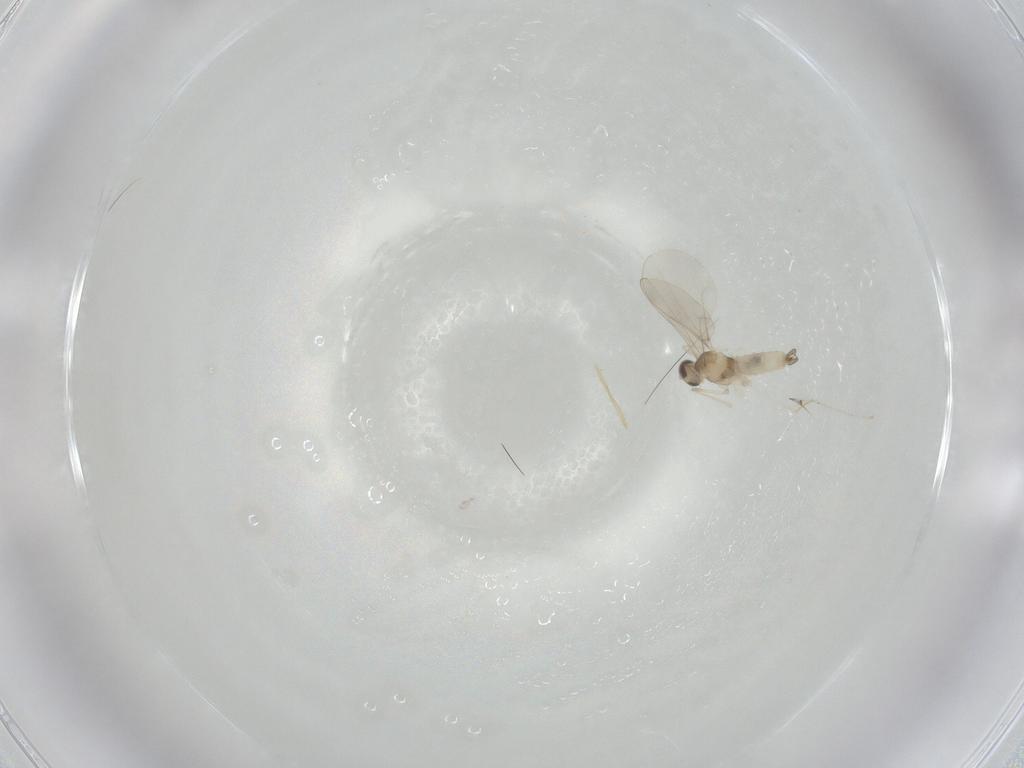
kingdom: Animalia
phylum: Arthropoda
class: Insecta
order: Diptera
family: Cecidomyiidae
